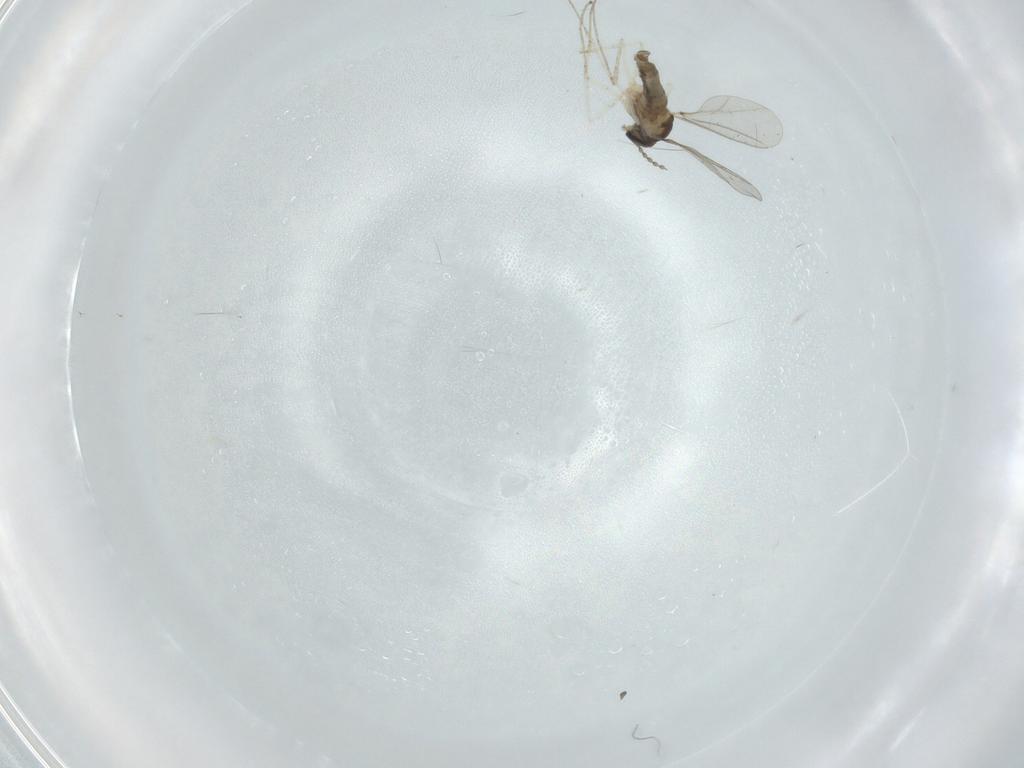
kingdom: Animalia
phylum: Arthropoda
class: Insecta
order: Diptera
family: Cecidomyiidae
